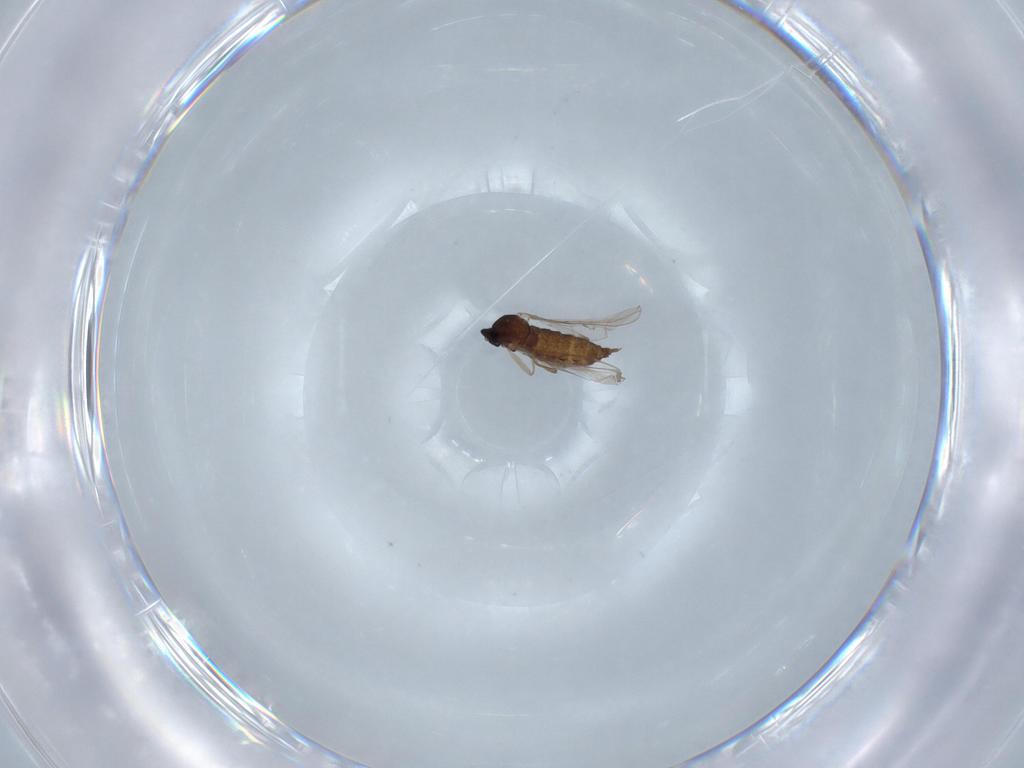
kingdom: Animalia
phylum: Arthropoda
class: Insecta
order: Diptera
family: Cecidomyiidae
